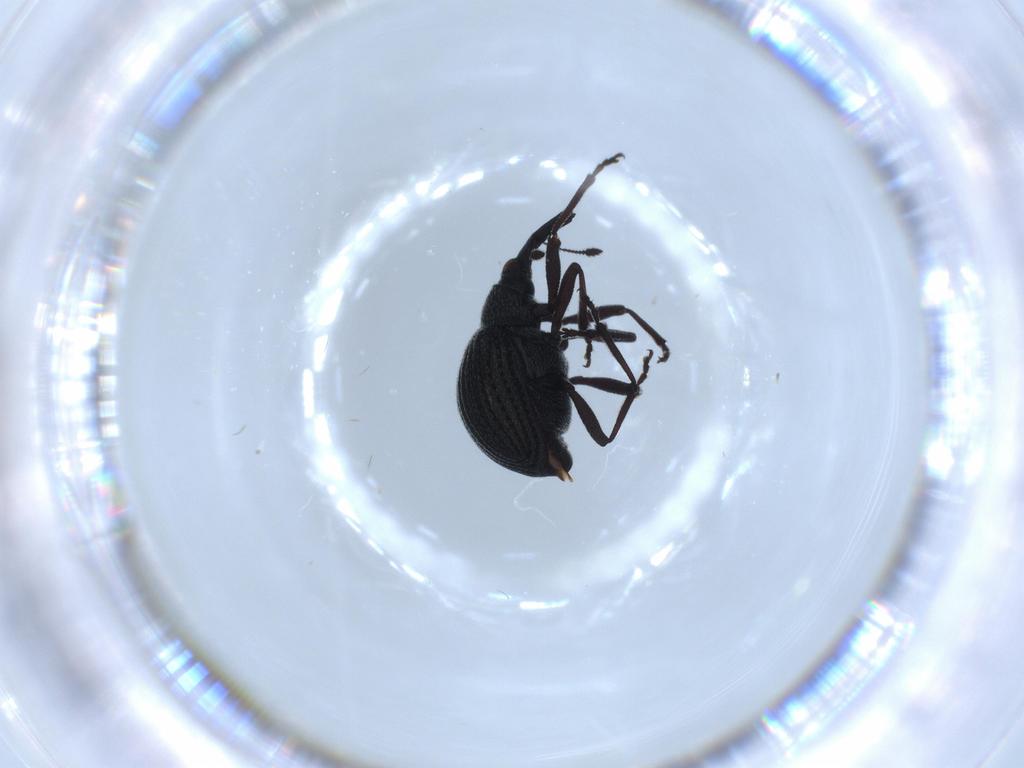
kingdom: Animalia
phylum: Arthropoda
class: Insecta
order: Coleoptera
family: Brentidae
